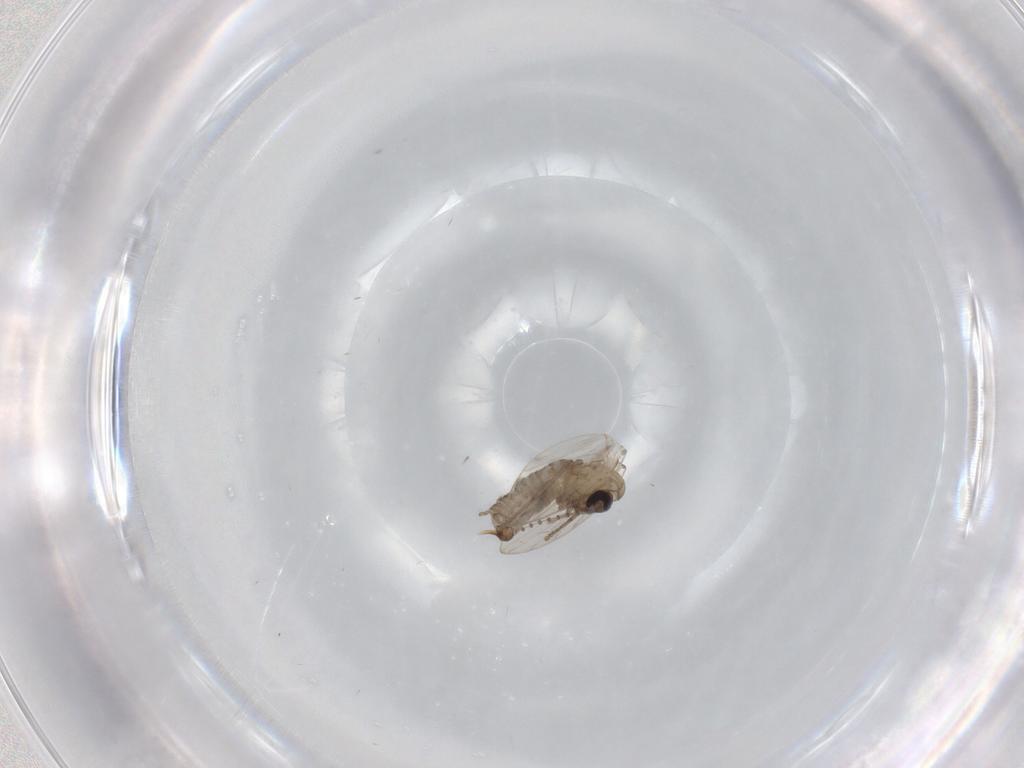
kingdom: Animalia
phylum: Arthropoda
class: Insecta
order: Diptera
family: Psychodidae
